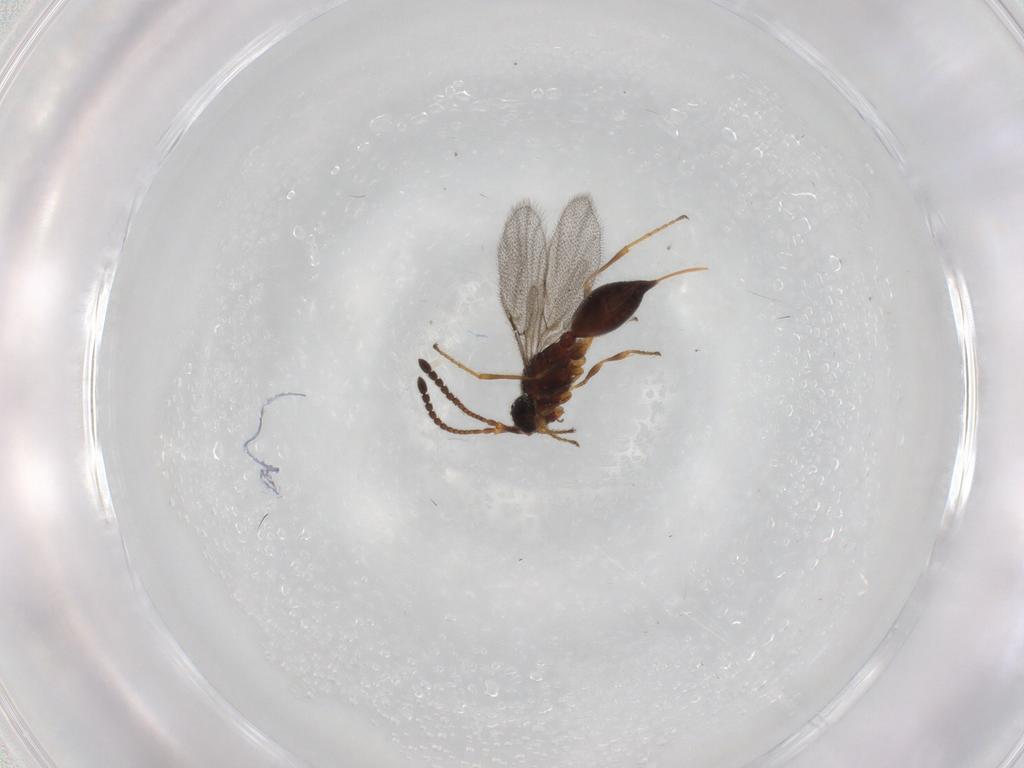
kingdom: Animalia
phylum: Arthropoda
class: Insecta
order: Hymenoptera
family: Diapriidae
